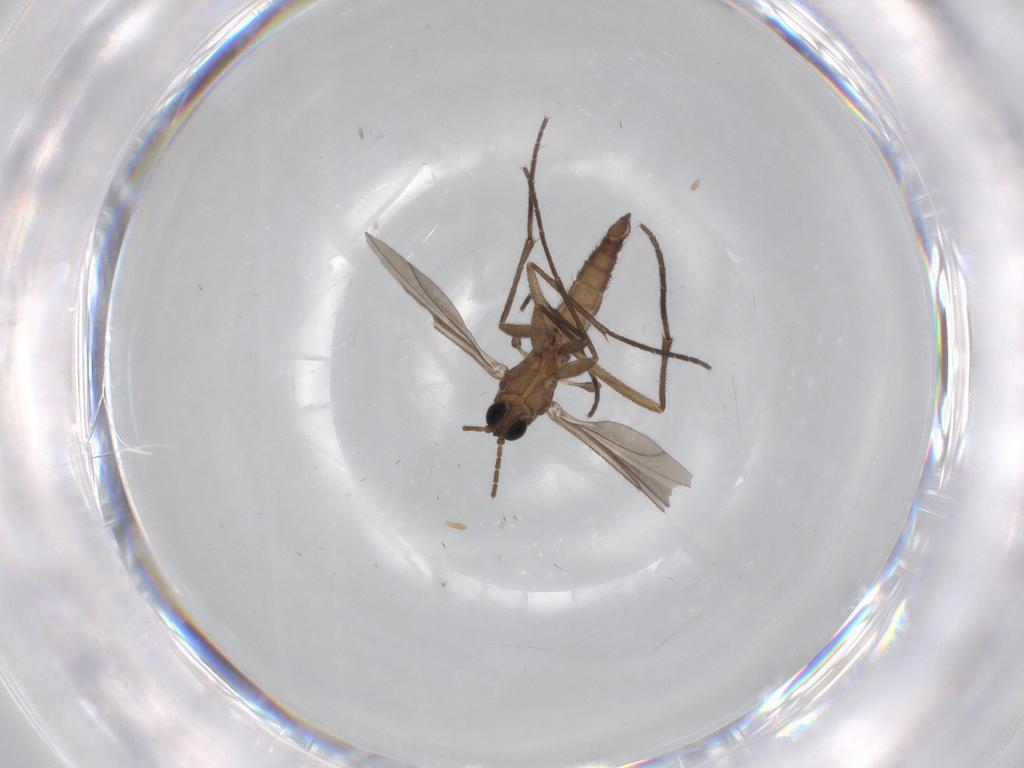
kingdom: Animalia
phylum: Arthropoda
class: Insecta
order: Diptera
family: Sciaridae
